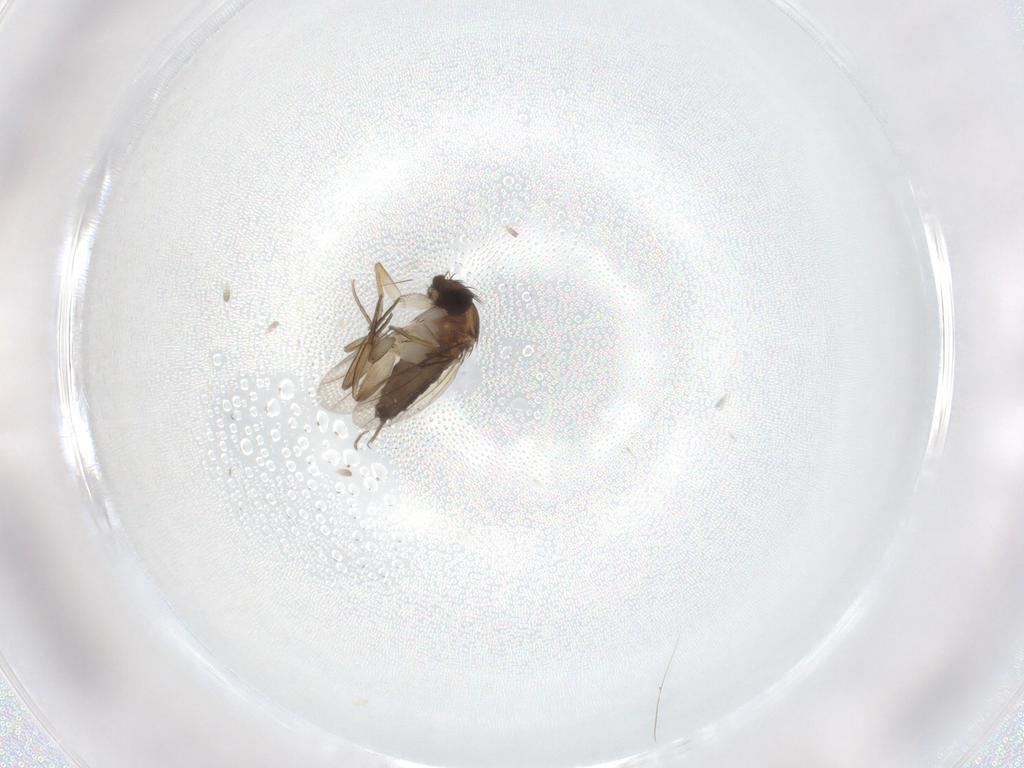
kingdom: Animalia
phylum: Arthropoda
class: Insecta
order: Diptera
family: Phoridae
